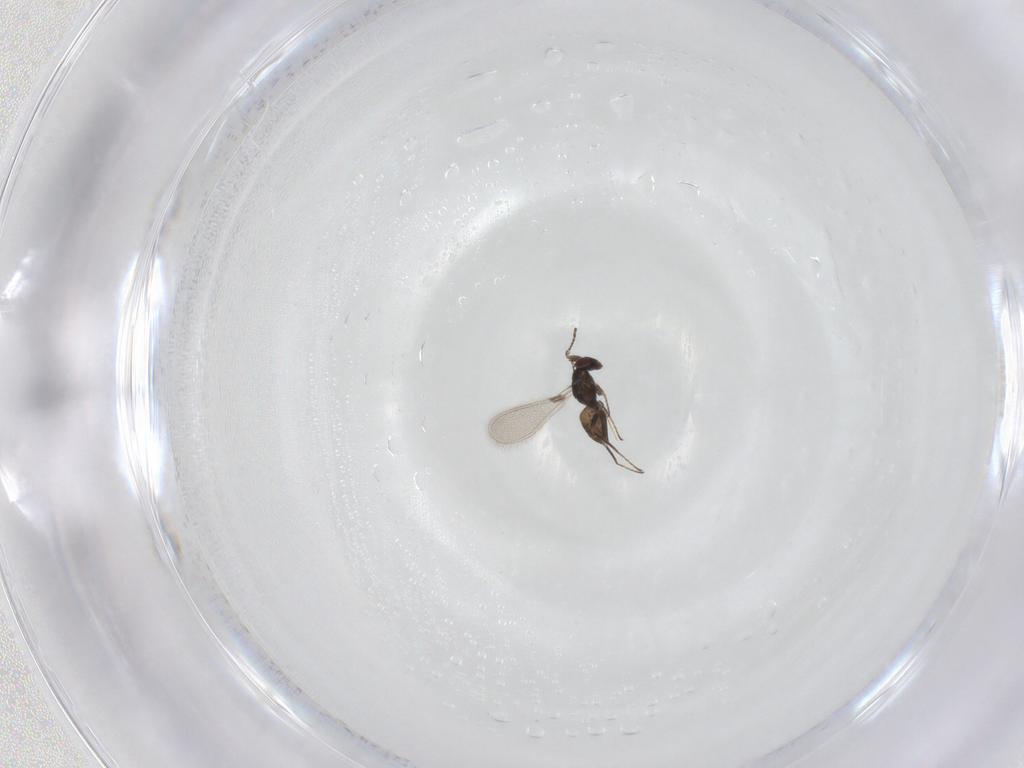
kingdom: Animalia
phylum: Arthropoda
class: Insecta
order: Hymenoptera
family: Mymaridae
